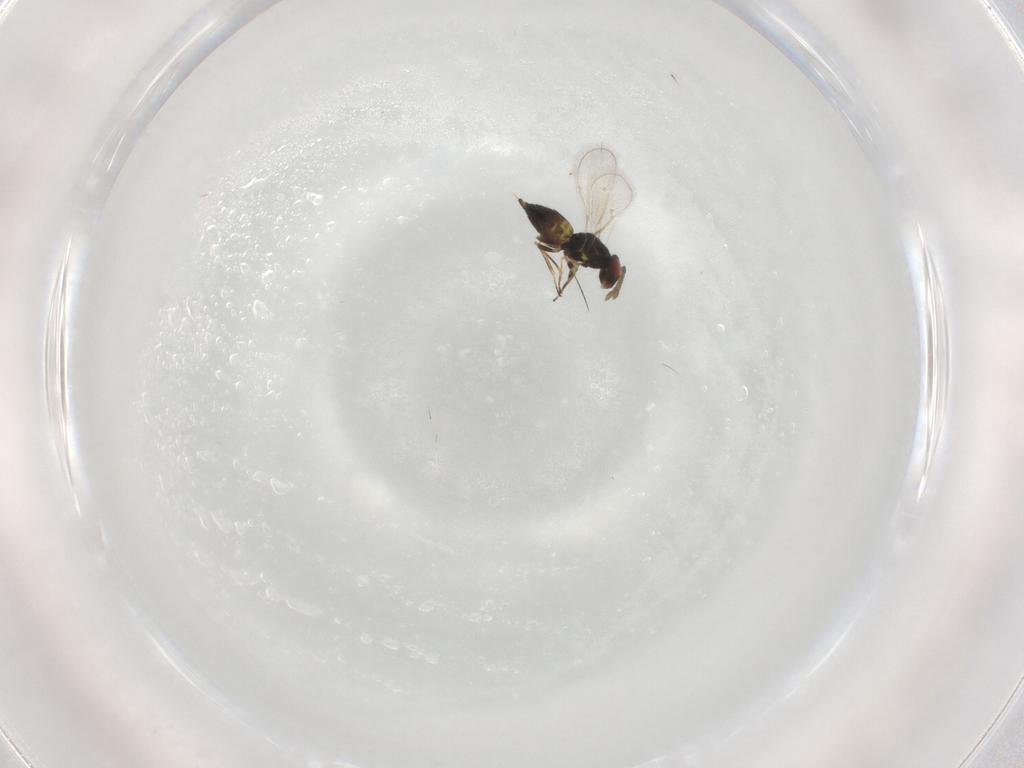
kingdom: Animalia
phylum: Arthropoda
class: Insecta
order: Hymenoptera
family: Eulophidae
